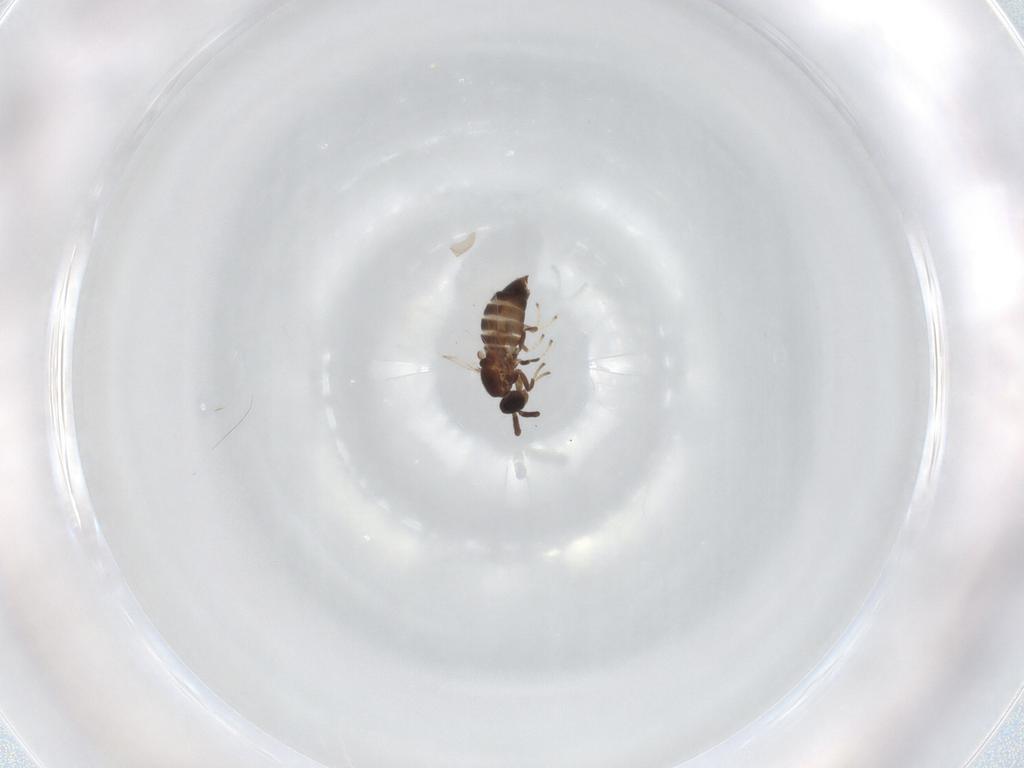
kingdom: Animalia
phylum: Arthropoda
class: Insecta
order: Diptera
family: Scatopsidae
